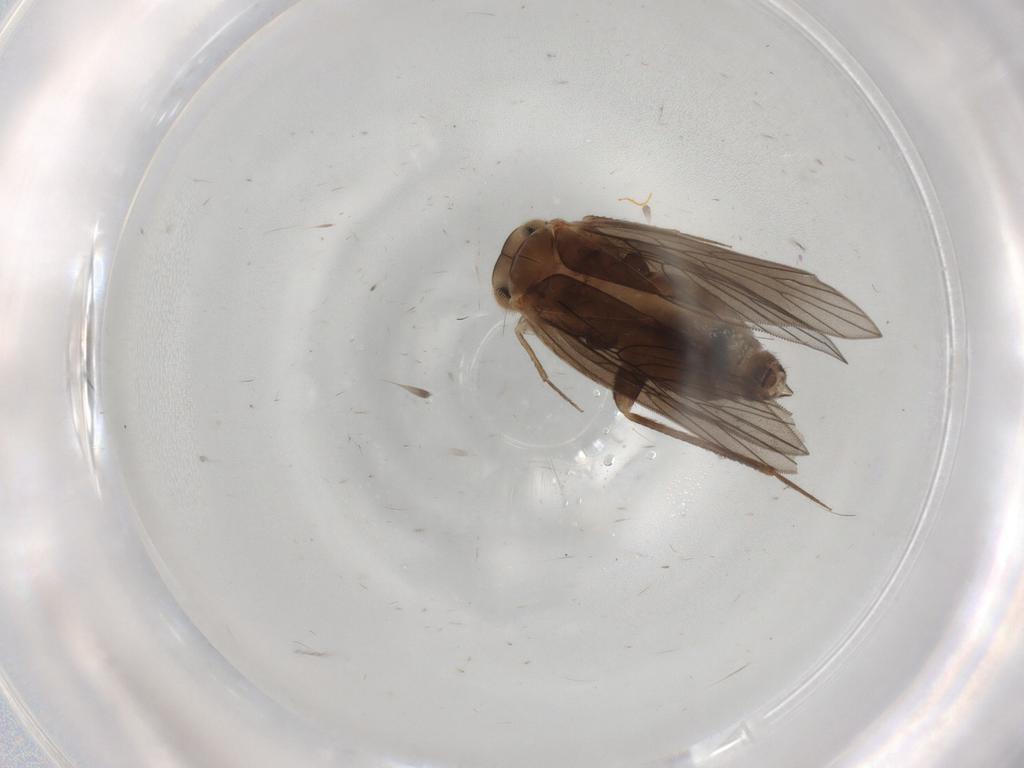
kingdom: Animalia
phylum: Arthropoda
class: Insecta
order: Psocodea
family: Lepidopsocidae
